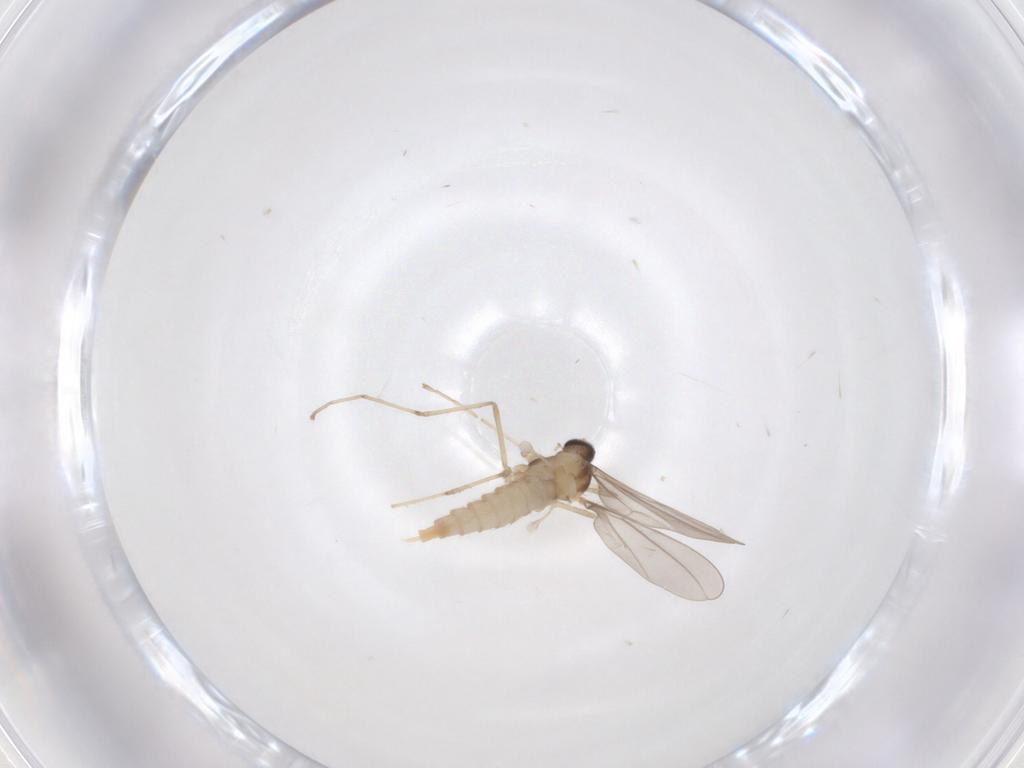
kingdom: Animalia
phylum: Arthropoda
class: Insecta
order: Diptera
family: Cecidomyiidae
